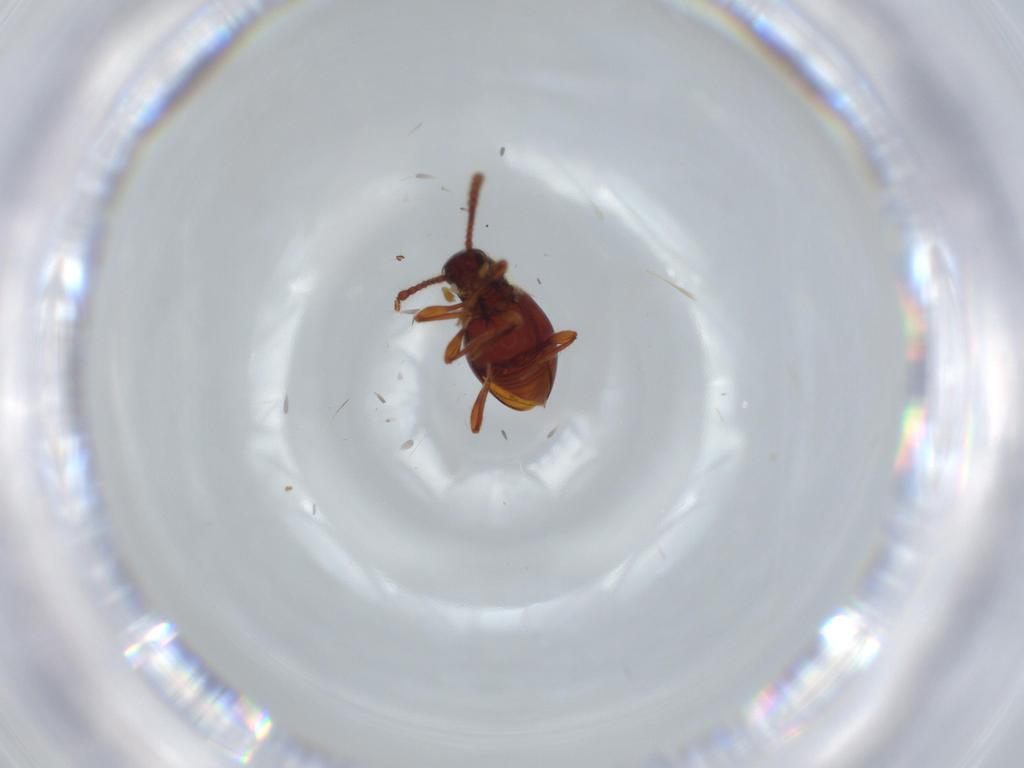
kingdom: Animalia
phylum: Arthropoda
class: Insecta
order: Coleoptera
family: Staphylinidae
